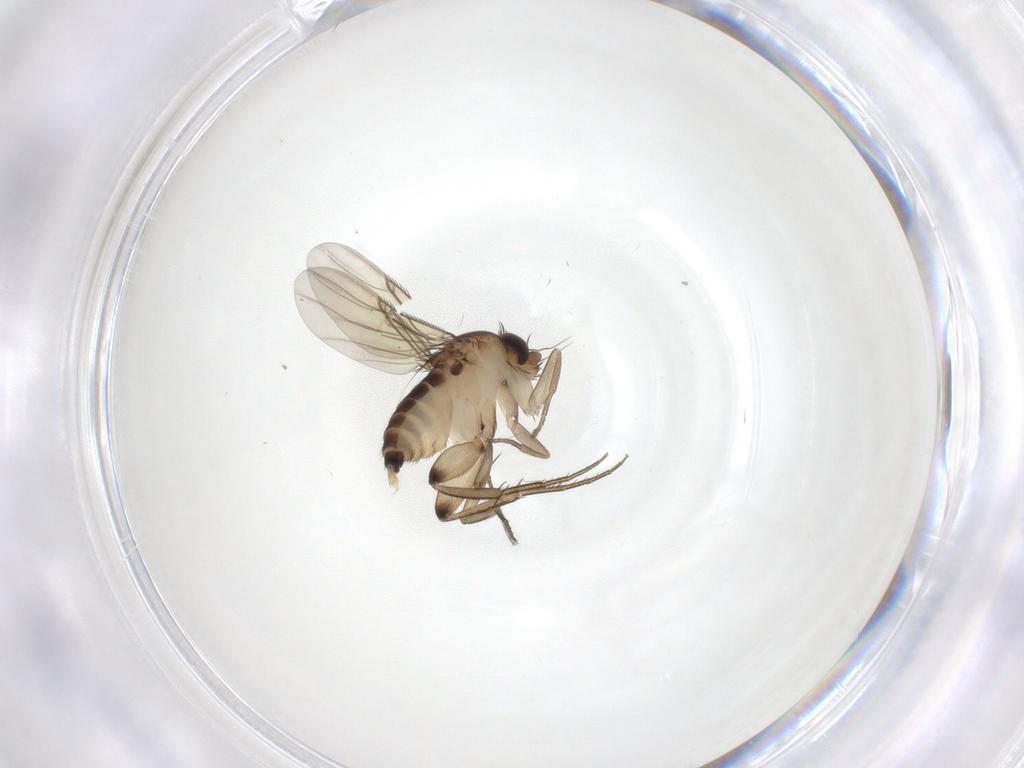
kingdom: Animalia
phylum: Arthropoda
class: Insecta
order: Diptera
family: Phoridae
